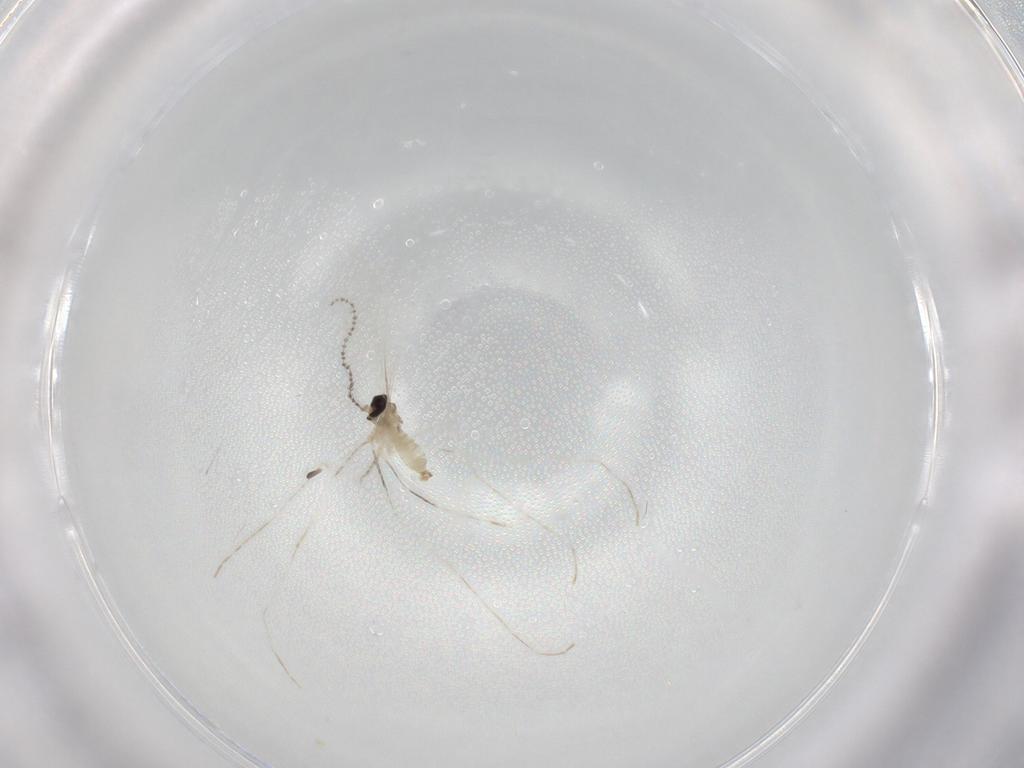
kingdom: Animalia
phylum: Arthropoda
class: Insecta
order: Diptera
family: Cecidomyiidae
